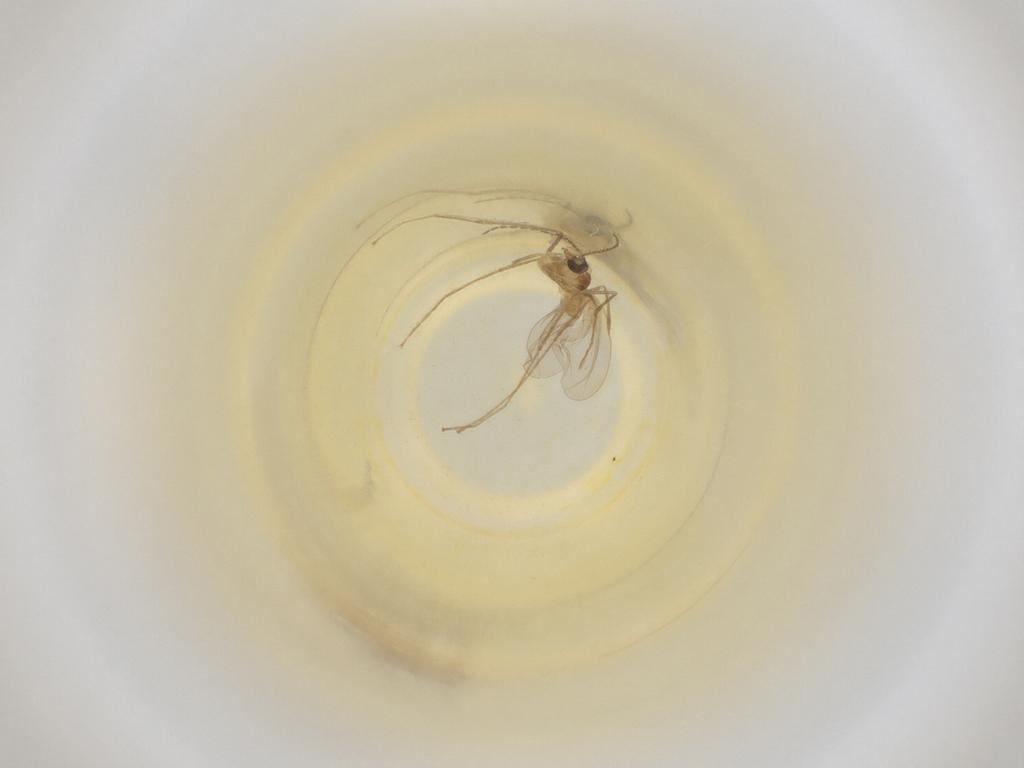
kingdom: Animalia
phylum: Arthropoda
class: Insecta
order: Diptera
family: Cecidomyiidae
